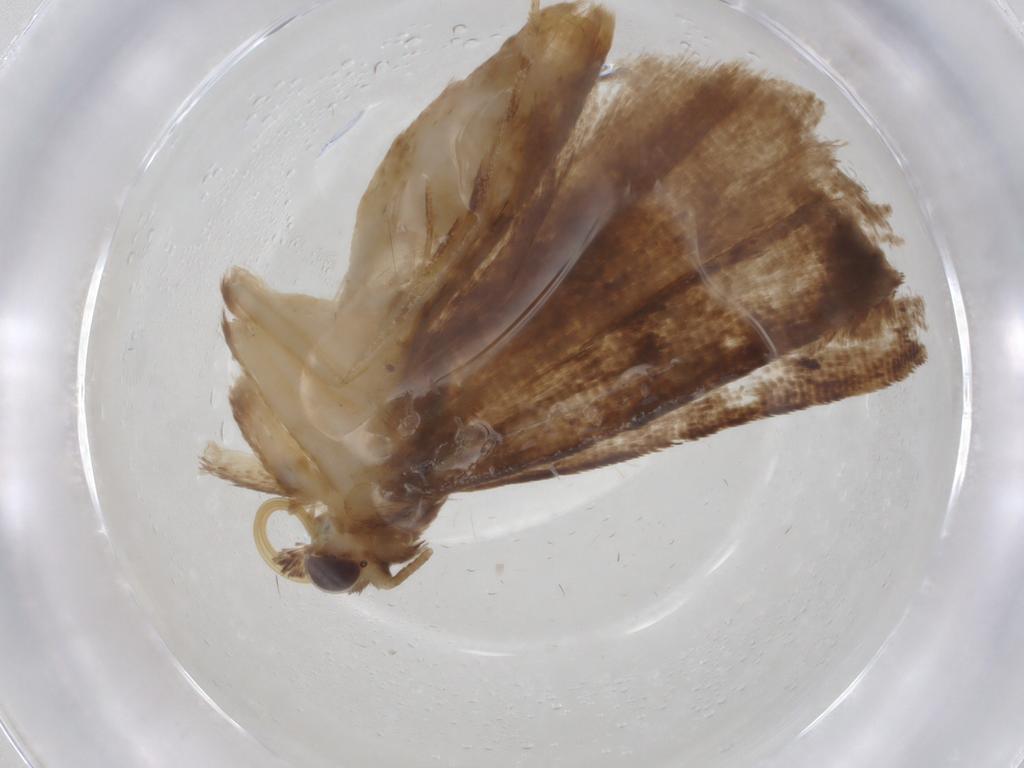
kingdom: Animalia
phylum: Arthropoda
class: Insecta
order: Lepidoptera
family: Erebidae
